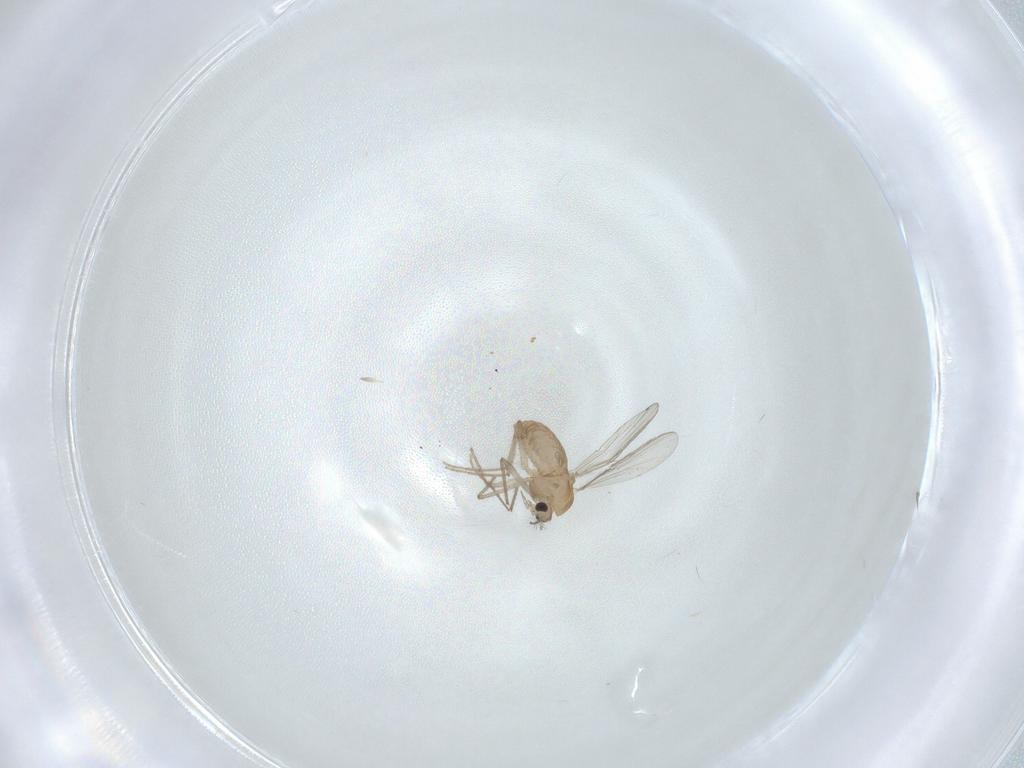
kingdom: Animalia
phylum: Arthropoda
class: Insecta
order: Diptera
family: Chironomidae
